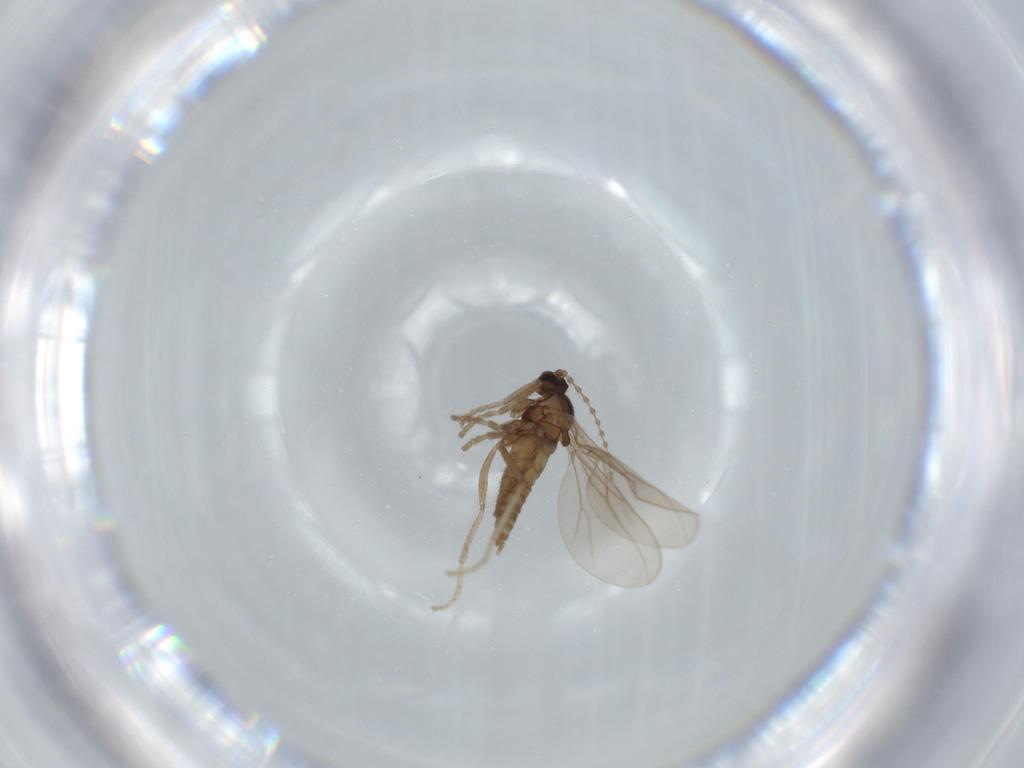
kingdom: Animalia
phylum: Arthropoda
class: Insecta
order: Diptera
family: Cecidomyiidae
